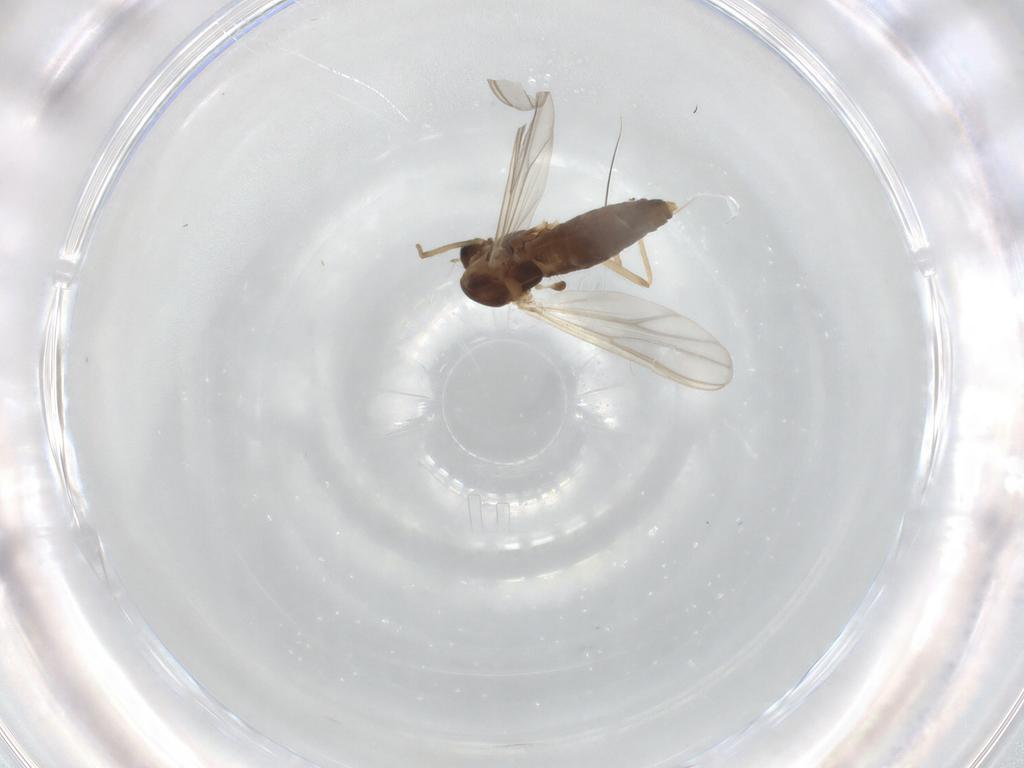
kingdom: Animalia
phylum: Arthropoda
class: Insecta
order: Diptera
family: Chironomidae
